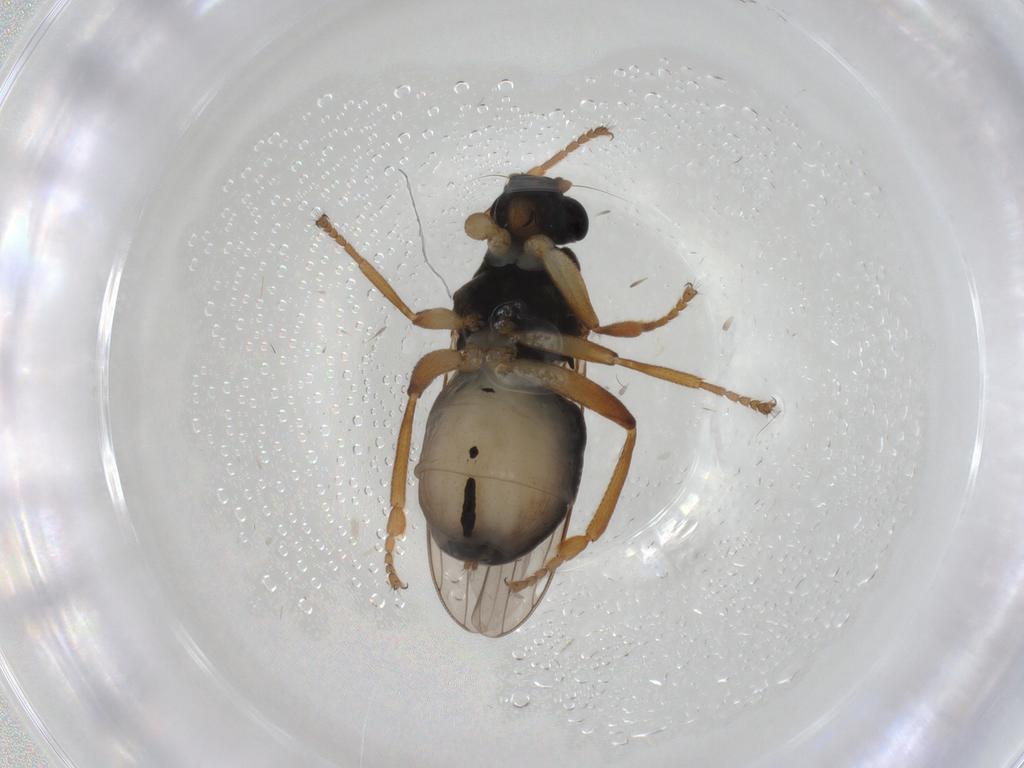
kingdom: Animalia
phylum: Arthropoda
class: Insecta
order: Diptera
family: Sphaeroceridae
